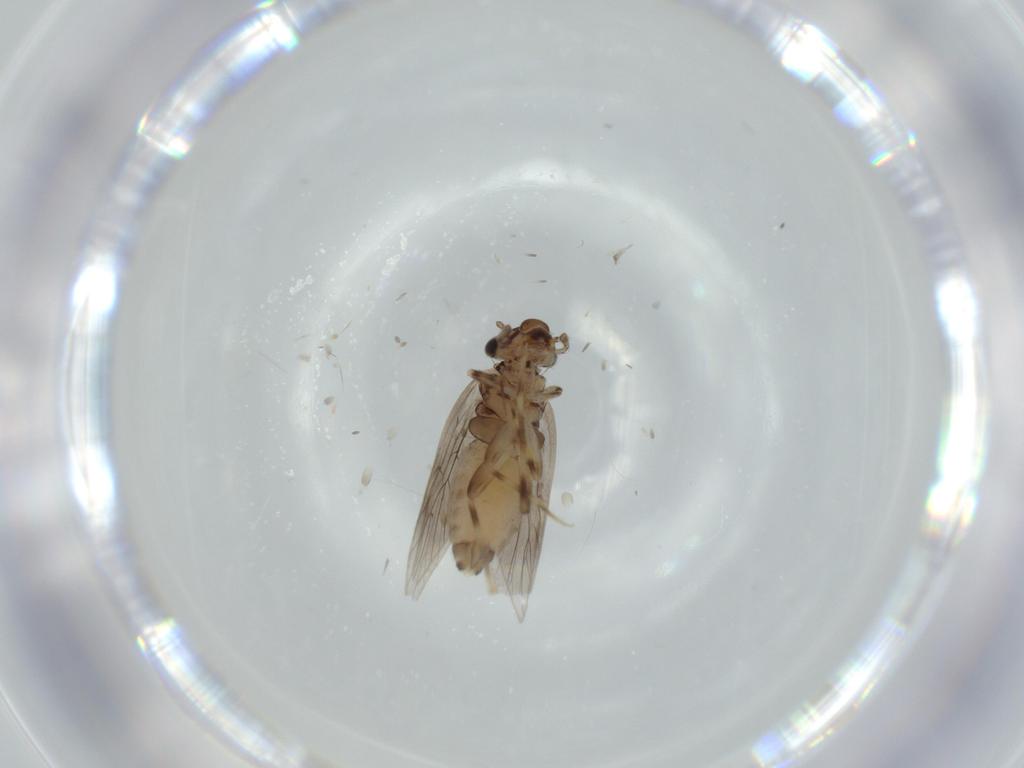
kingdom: Animalia
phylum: Arthropoda
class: Insecta
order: Psocodea
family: Lepidopsocidae
